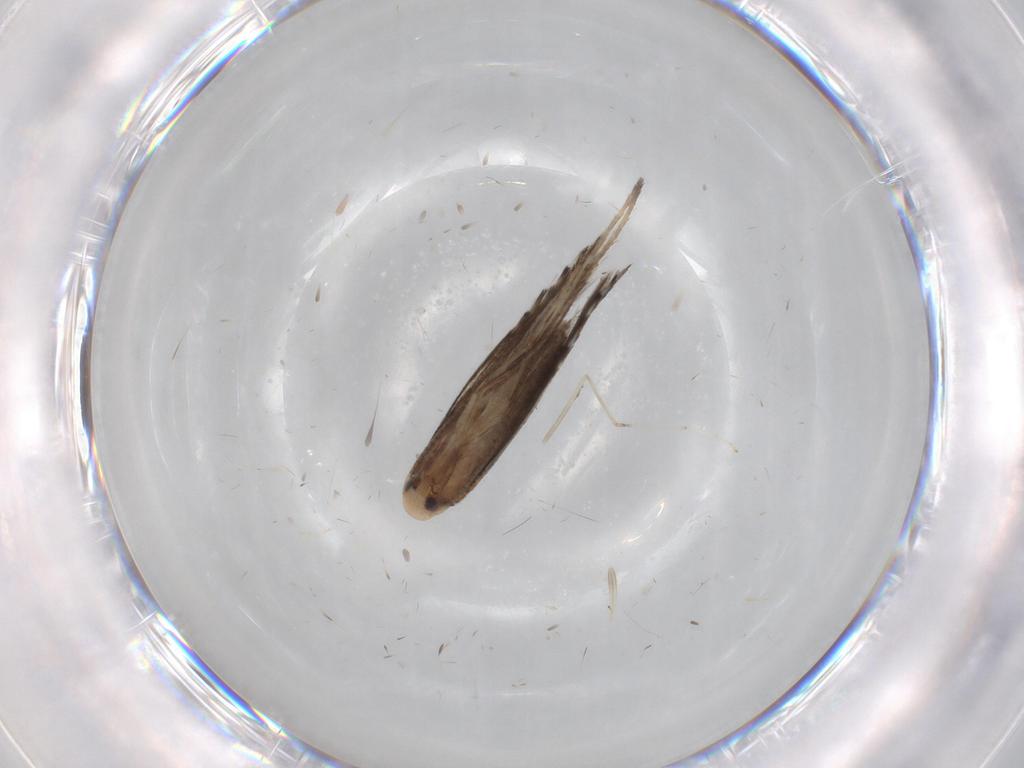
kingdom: Animalia
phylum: Arthropoda
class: Insecta
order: Lepidoptera
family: Nepticulidae
